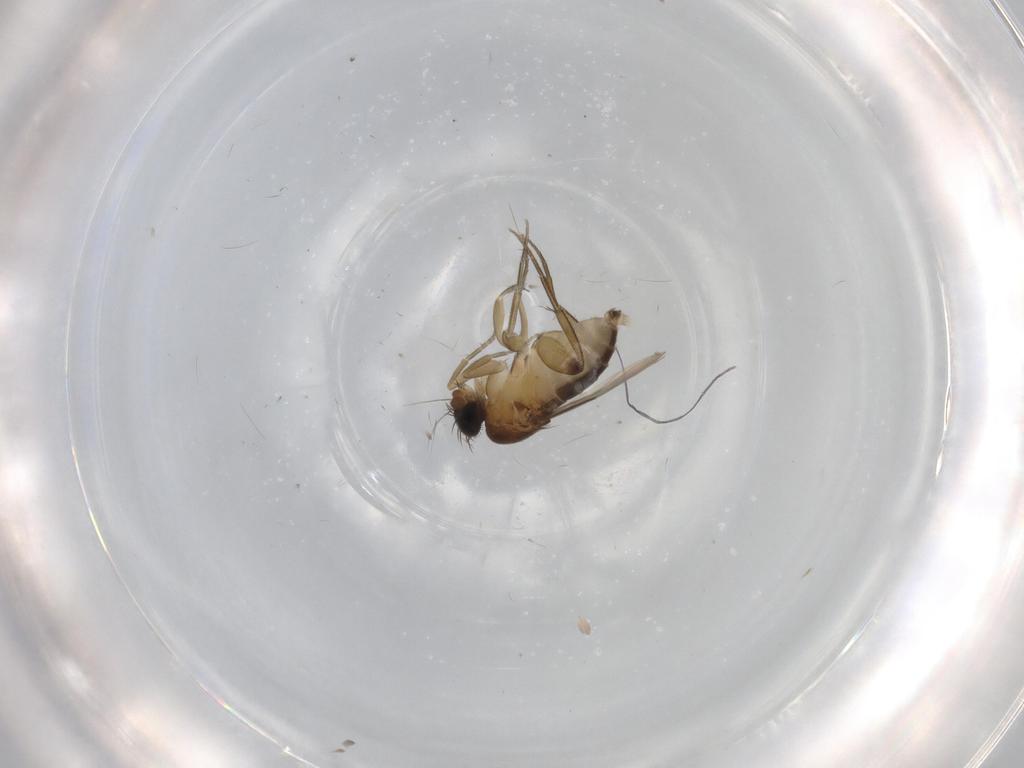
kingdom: Animalia
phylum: Arthropoda
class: Insecta
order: Diptera
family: Phoridae
